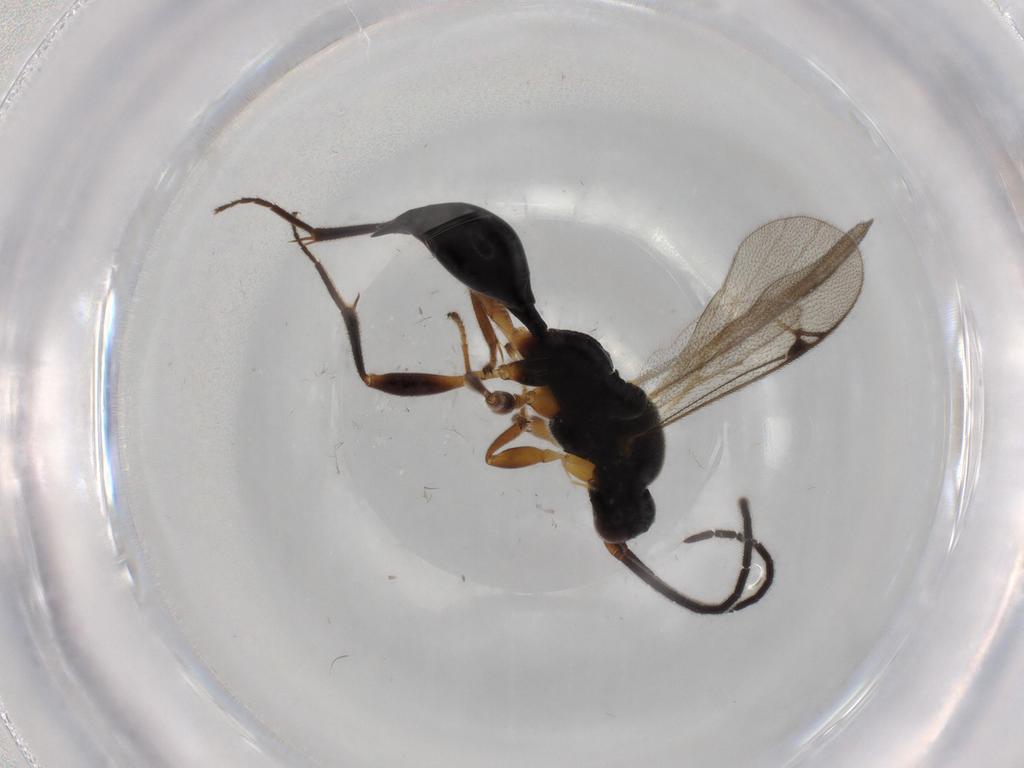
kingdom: Animalia
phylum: Arthropoda
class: Insecta
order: Hymenoptera
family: Proctotrupidae
